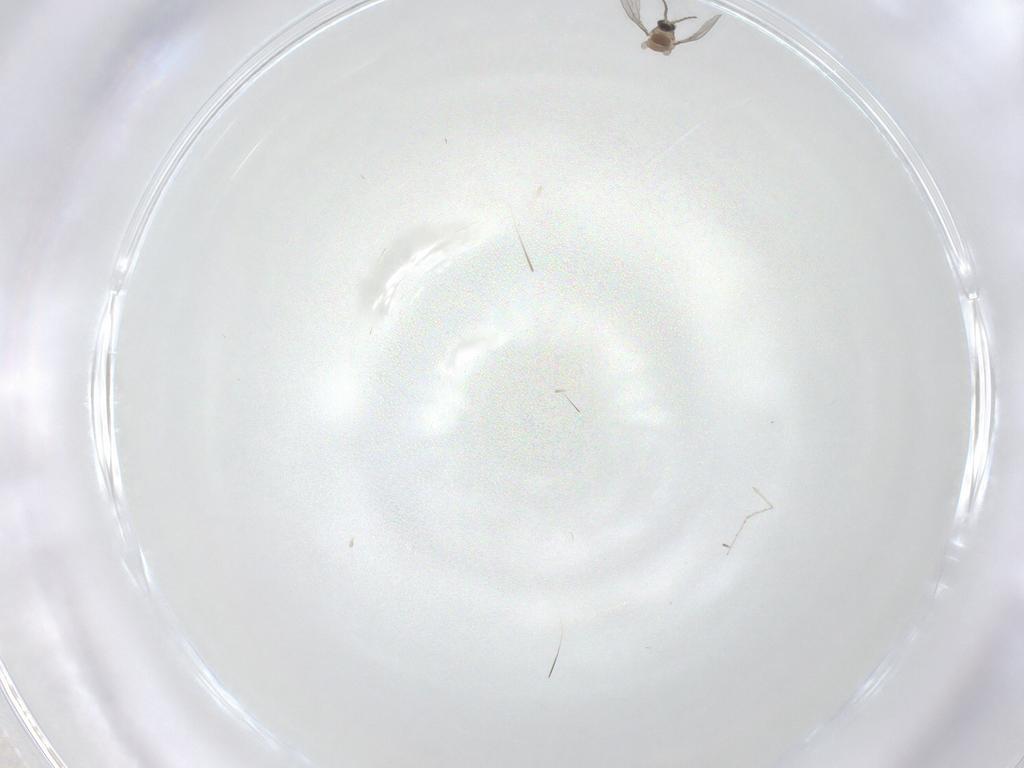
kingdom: Animalia
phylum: Arthropoda
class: Insecta
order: Diptera
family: Cecidomyiidae
